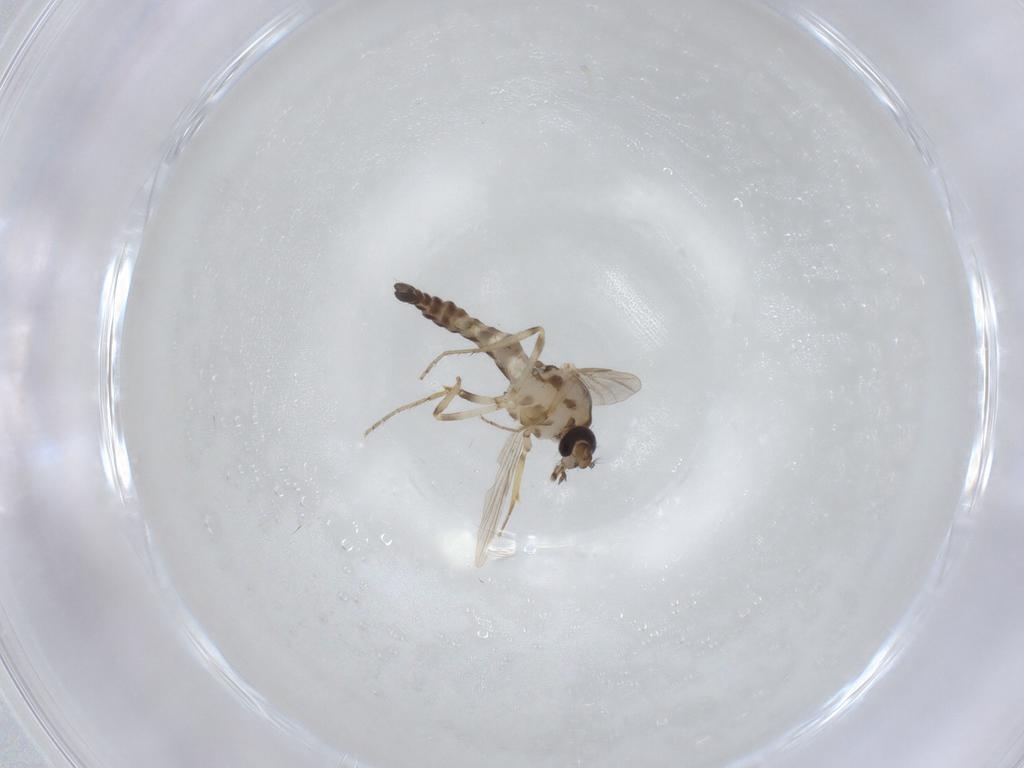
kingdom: Animalia
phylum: Arthropoda
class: Insecta
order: Diptera
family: Ceratopogonidae
